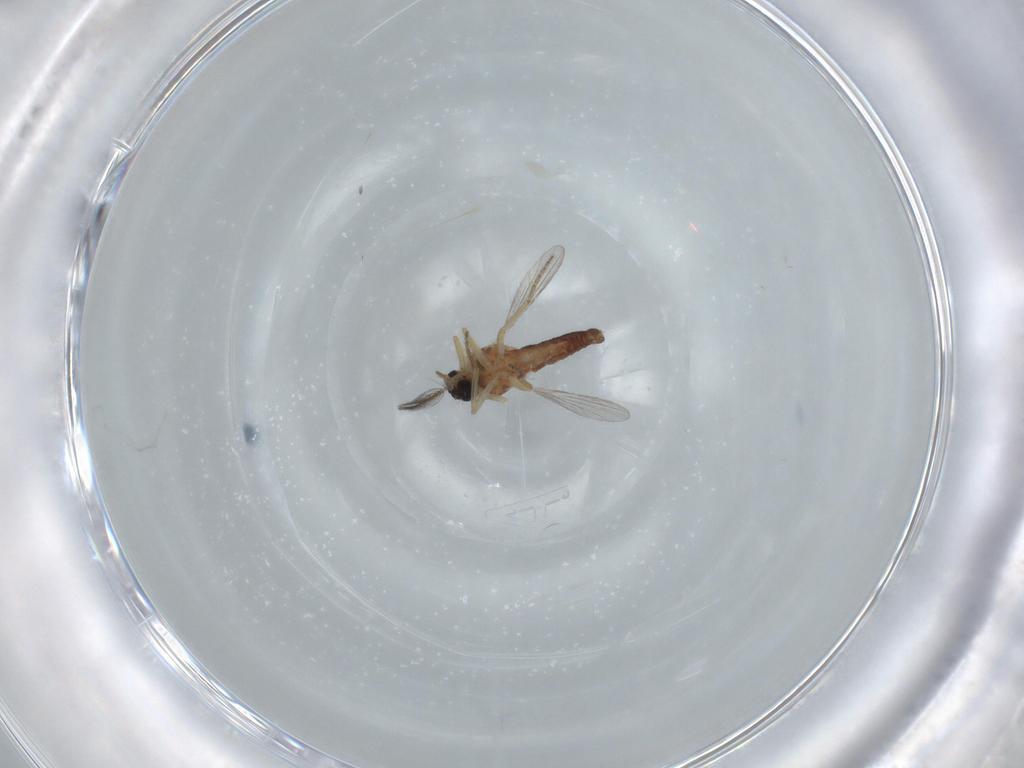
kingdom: Animalia
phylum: Arthropoda
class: Insecta
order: Diptera
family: Ceratopogonidae
